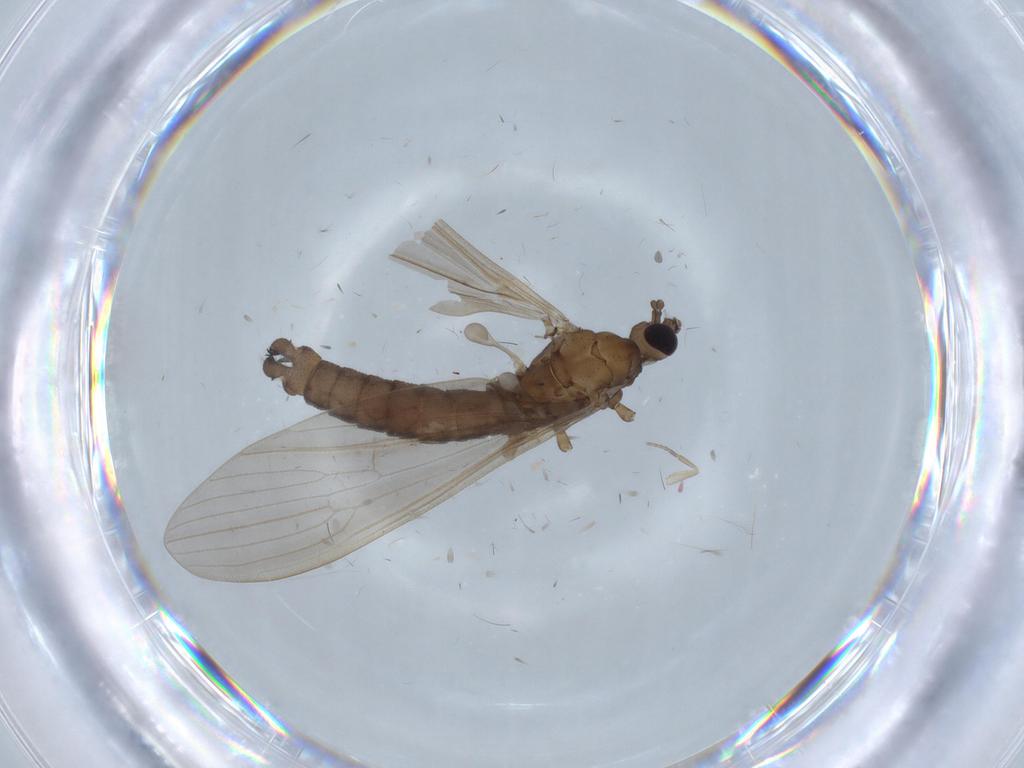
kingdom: Animalia
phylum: Arthropoda
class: Insecta
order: Diptera
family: Phoridae
